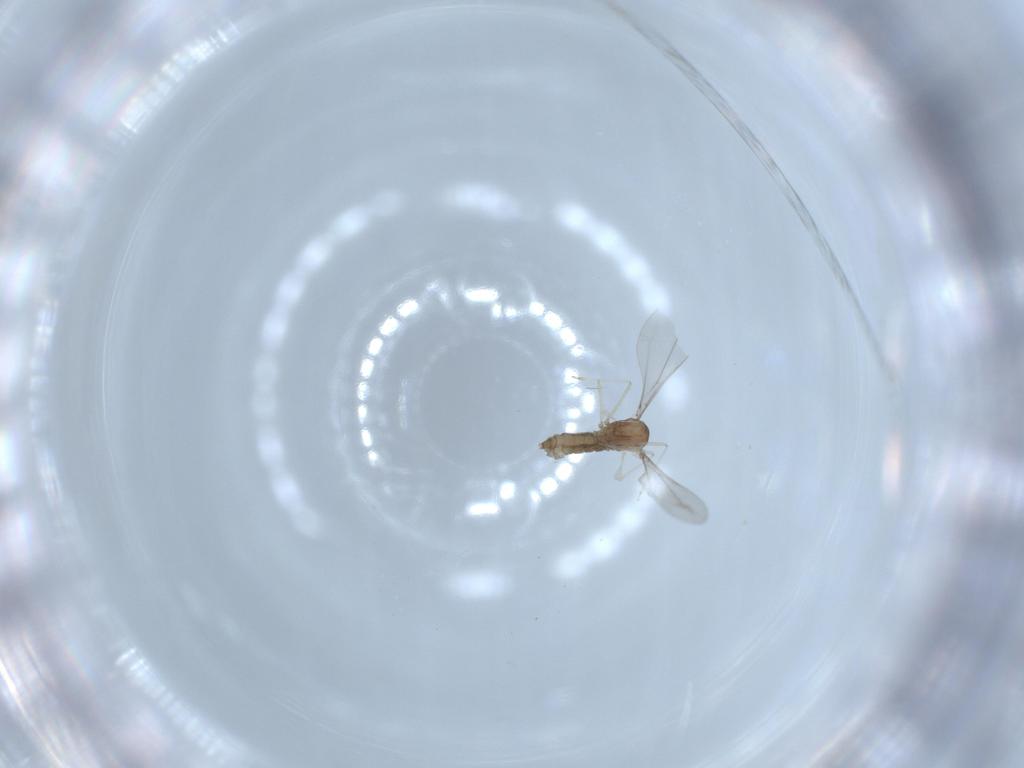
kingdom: Animalia
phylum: Arthropoda
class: Insecta
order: Diptera
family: Cecidomyiidae
